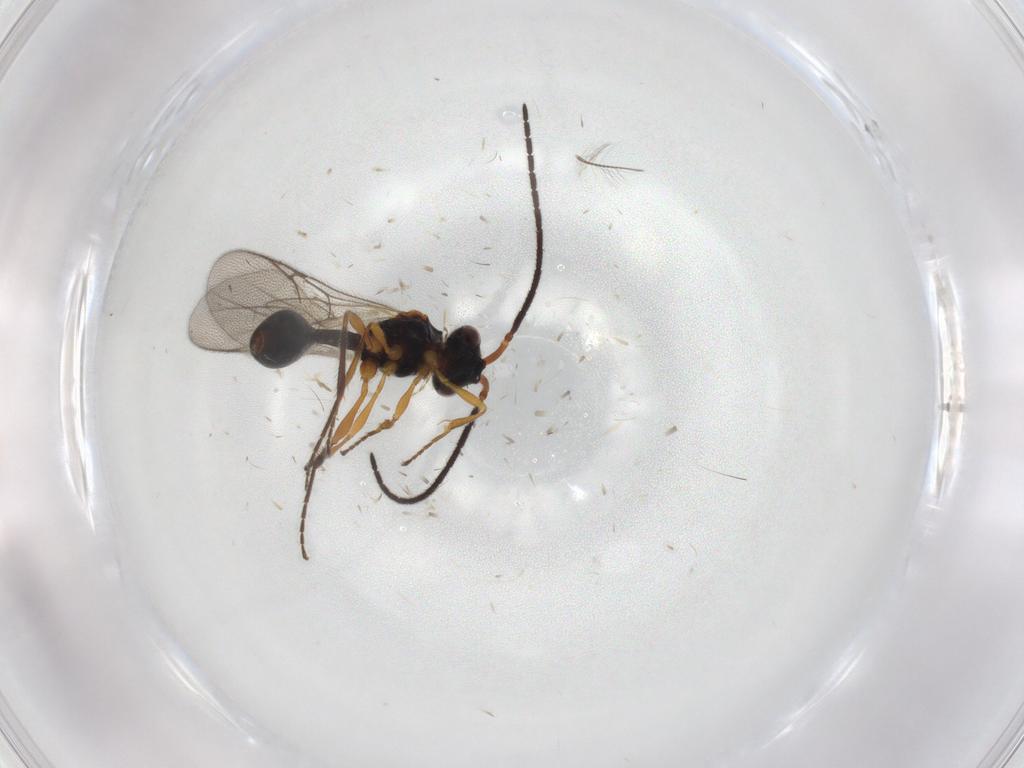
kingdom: Animalia
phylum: Arthropoda
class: Insecta
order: Hymenoptera
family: Diapriidae
